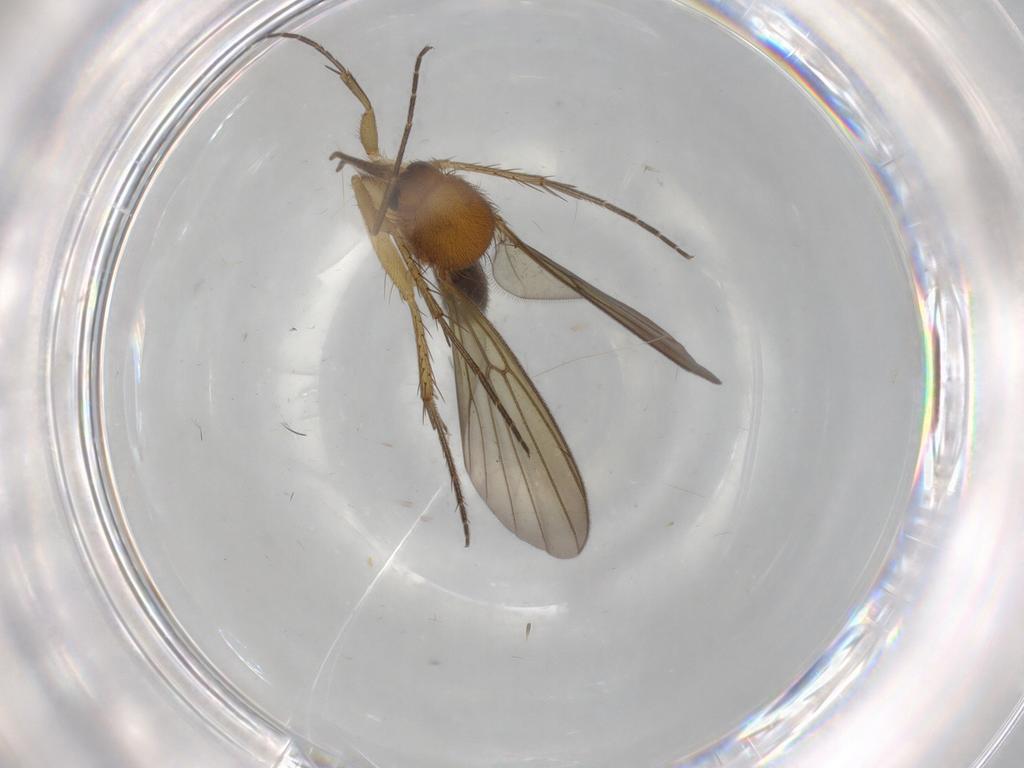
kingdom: Animalia
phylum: Arthropoda
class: Insecta
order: Diptera
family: Mycetophilidae
